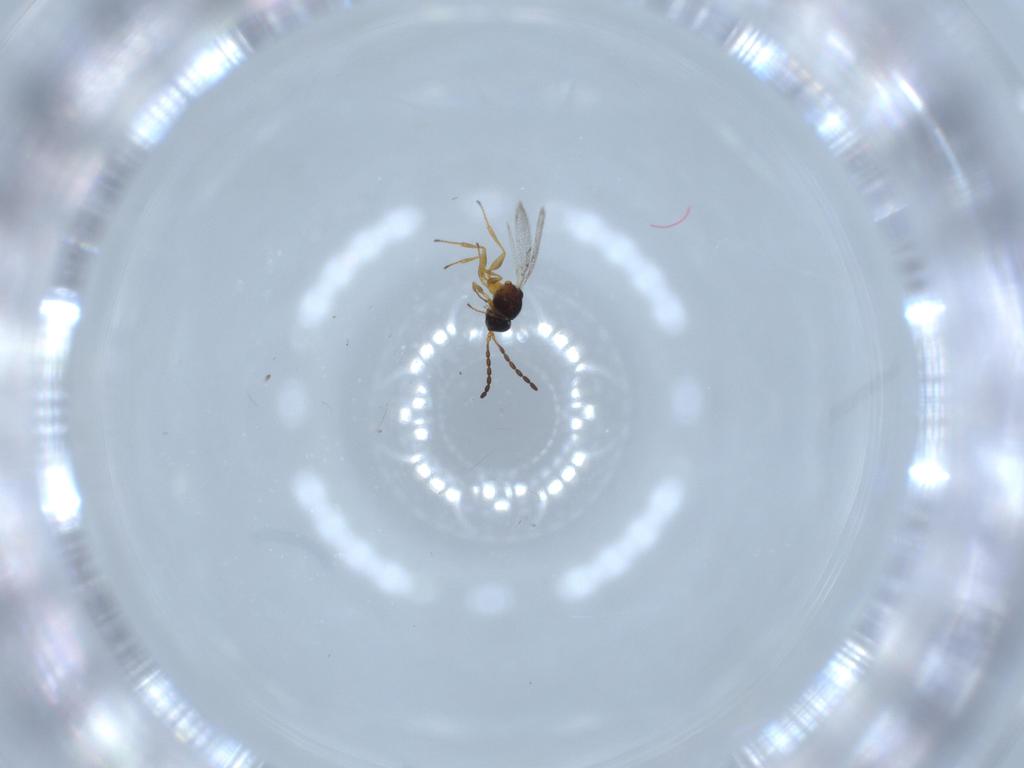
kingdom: Animalia
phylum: Arthropoda
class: Insecta
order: Hymenoptera
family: Figitidae
